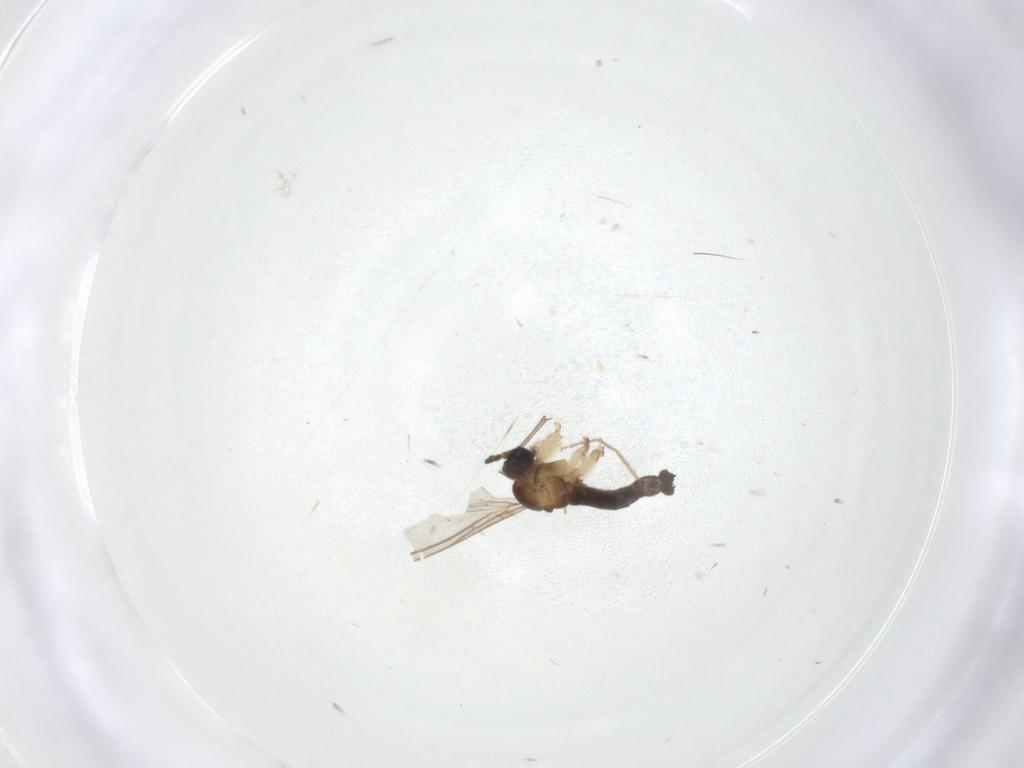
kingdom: Animalia
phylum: Arthropoda
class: Insecta
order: Diptera
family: Sciaridae
